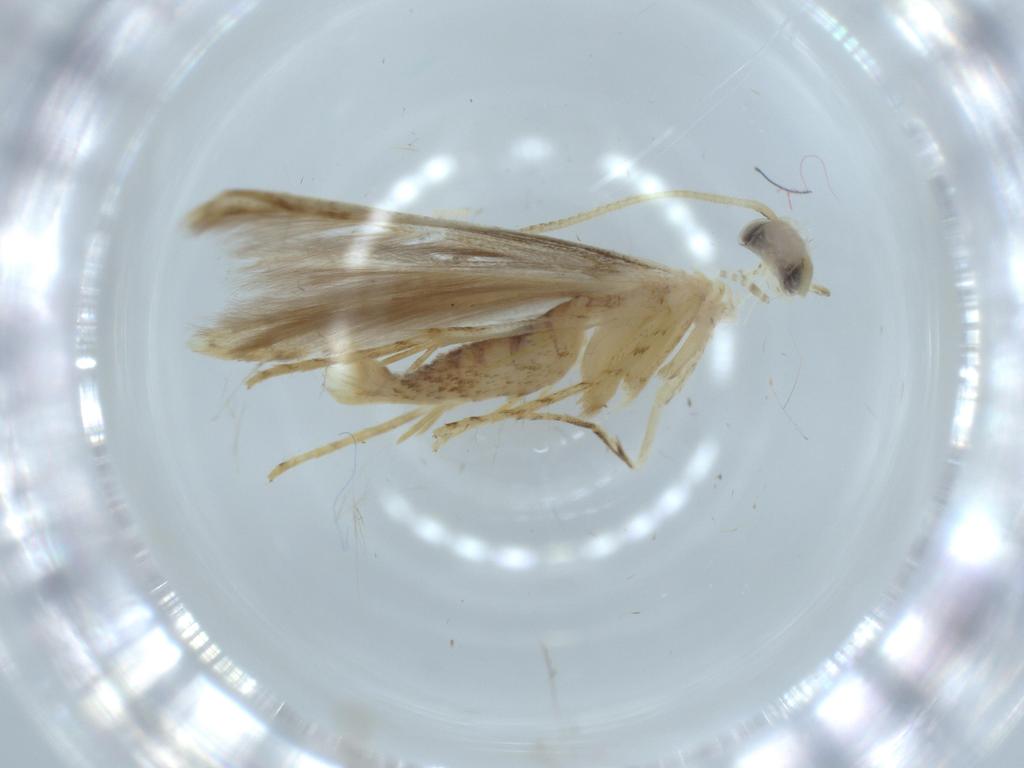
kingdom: Animalia
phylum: Arthropoda
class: Insecta
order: Lepidoptera
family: Batrachedridae
